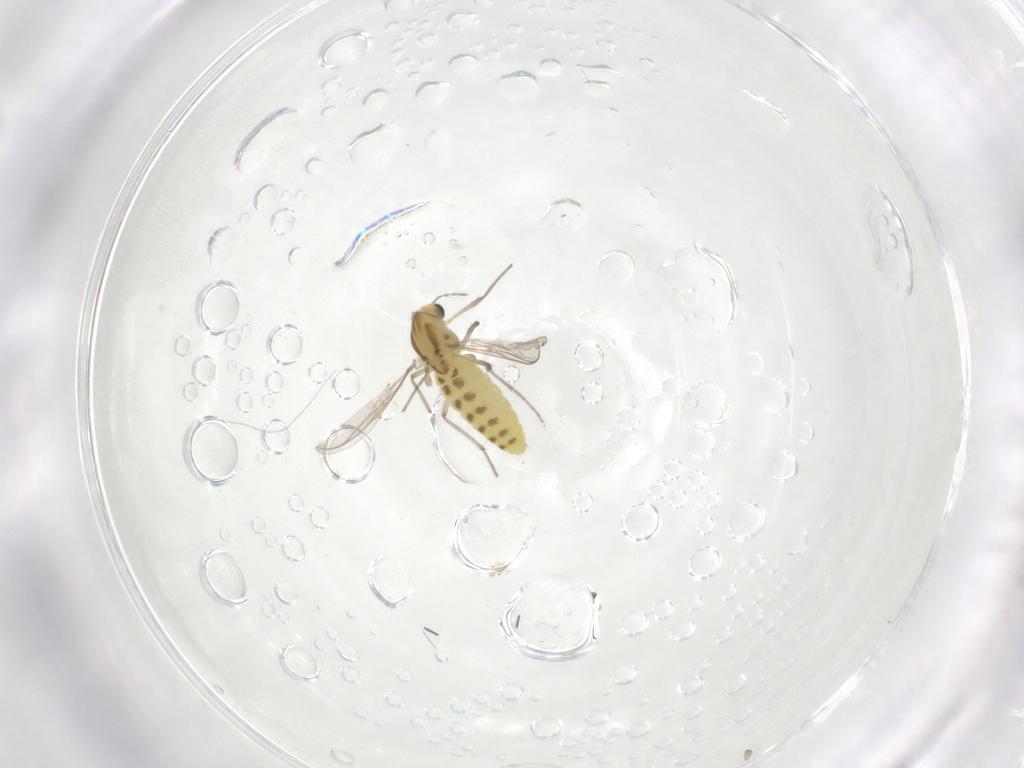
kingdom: Animalia
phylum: Arthropoda
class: Insecta
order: Diptera
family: Chironomidae
